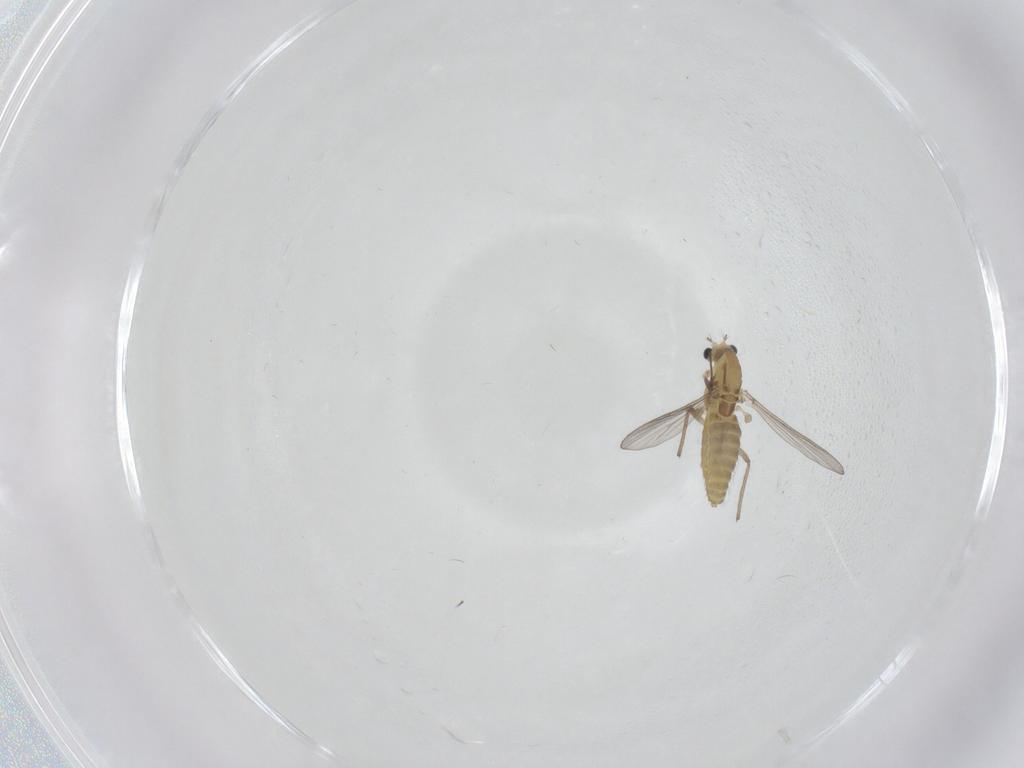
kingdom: Animalia
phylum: Arthropoda
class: Insecta
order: Diptera
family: Chironomidae
